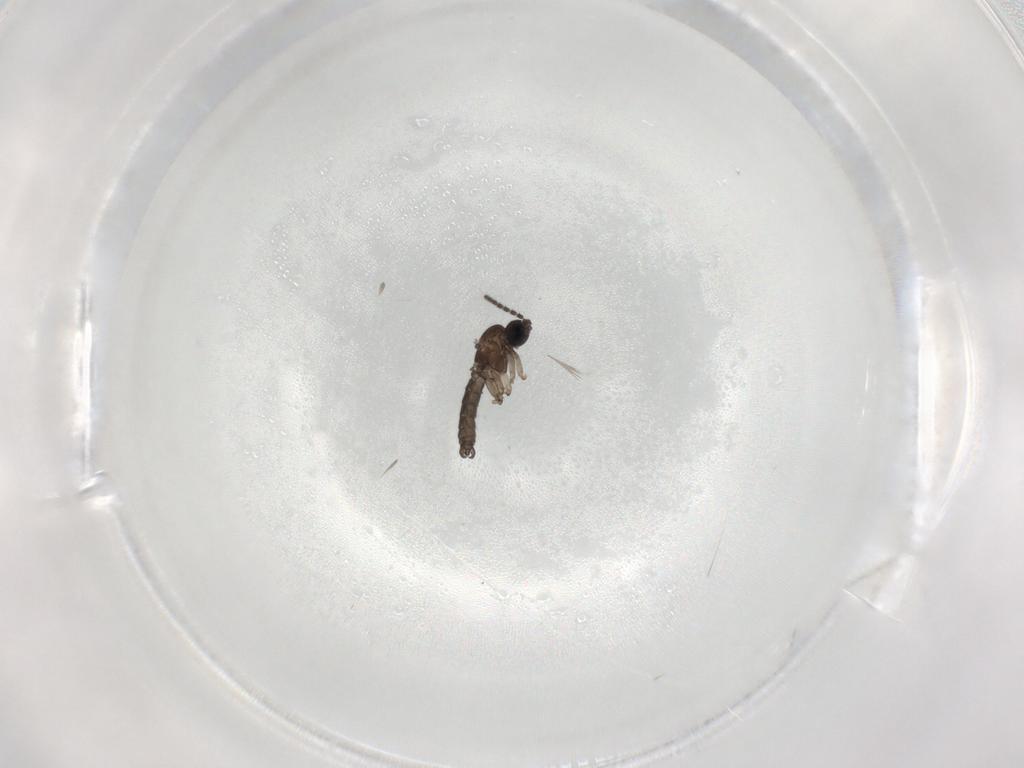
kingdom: Animalia
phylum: Arthropoda
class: Insecta
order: Diptera
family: Sciaridae
